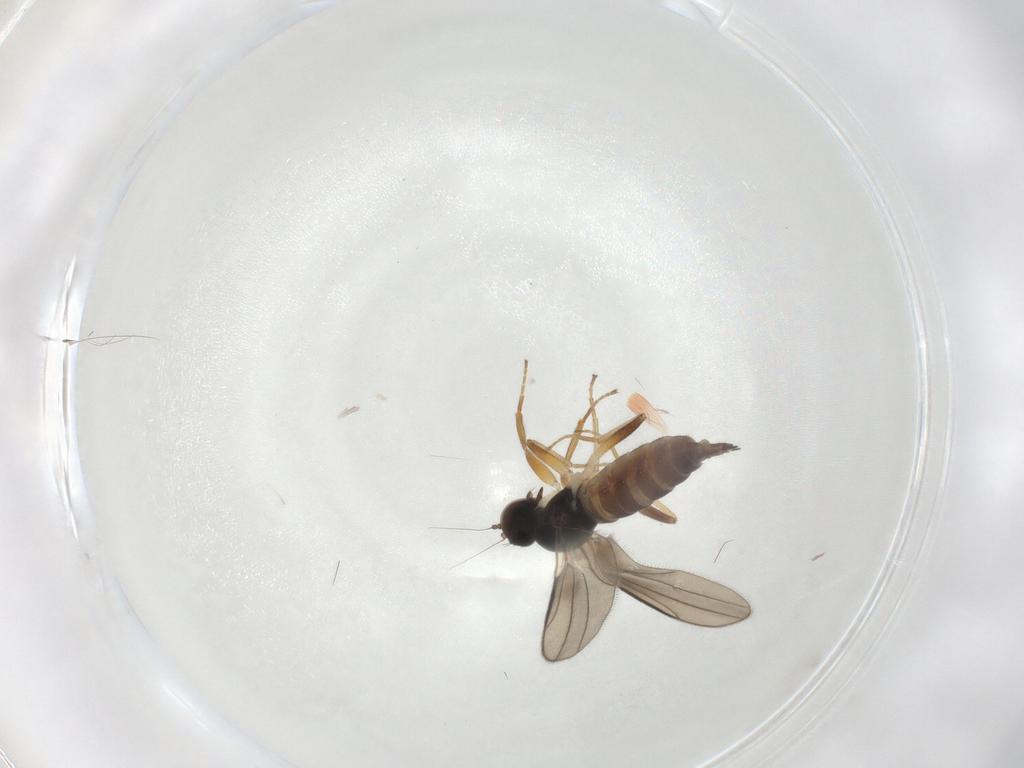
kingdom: Animalia
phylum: Arthropoda
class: Insecta
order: Diptera
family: Hybotidae
